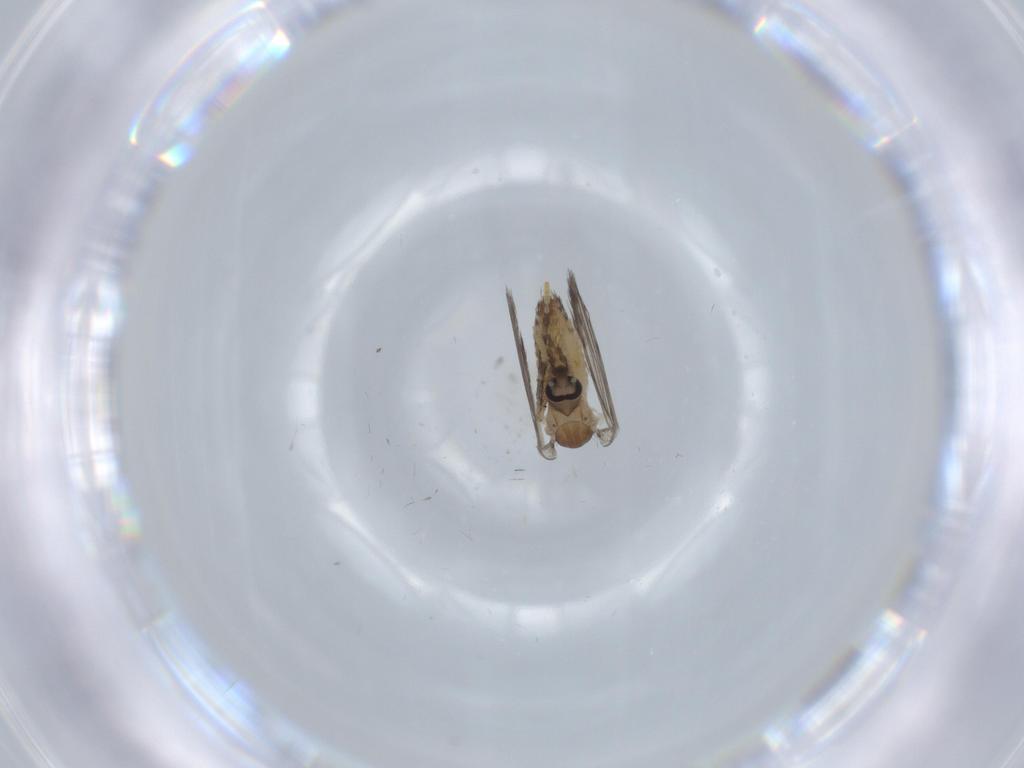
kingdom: Animalia
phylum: Arthropoda
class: Insecta
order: Diptera
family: Psychodidae
